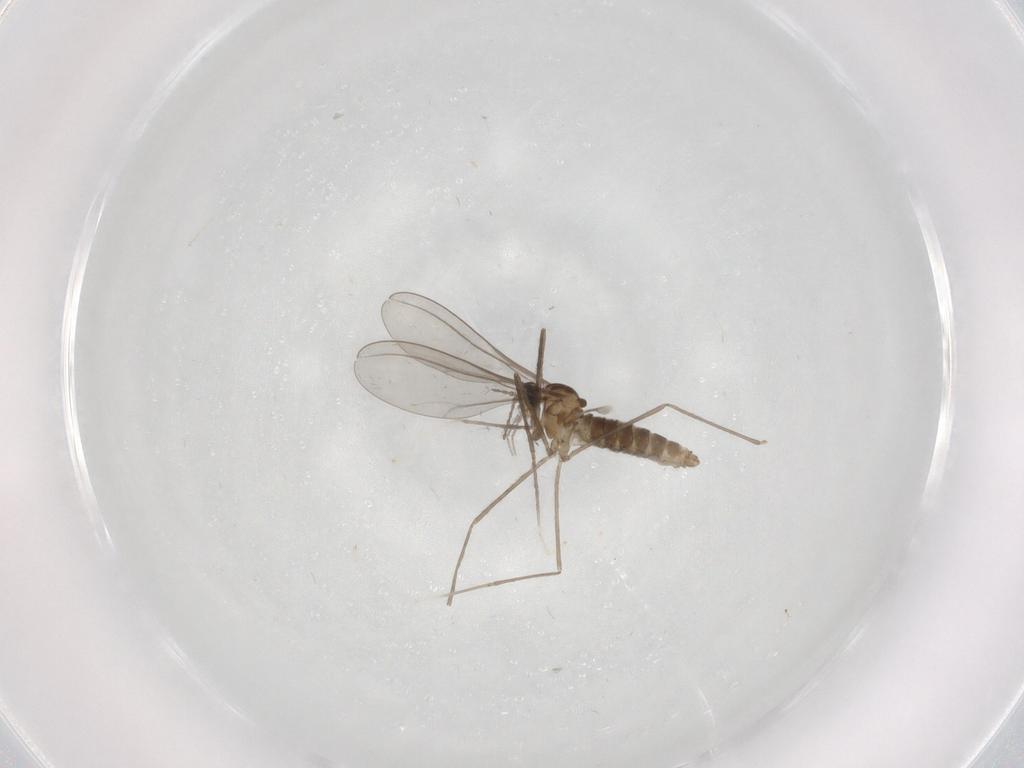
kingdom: Animalia
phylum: Arthropoda
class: Insecta
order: Diptera
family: Cecidomyiidae
